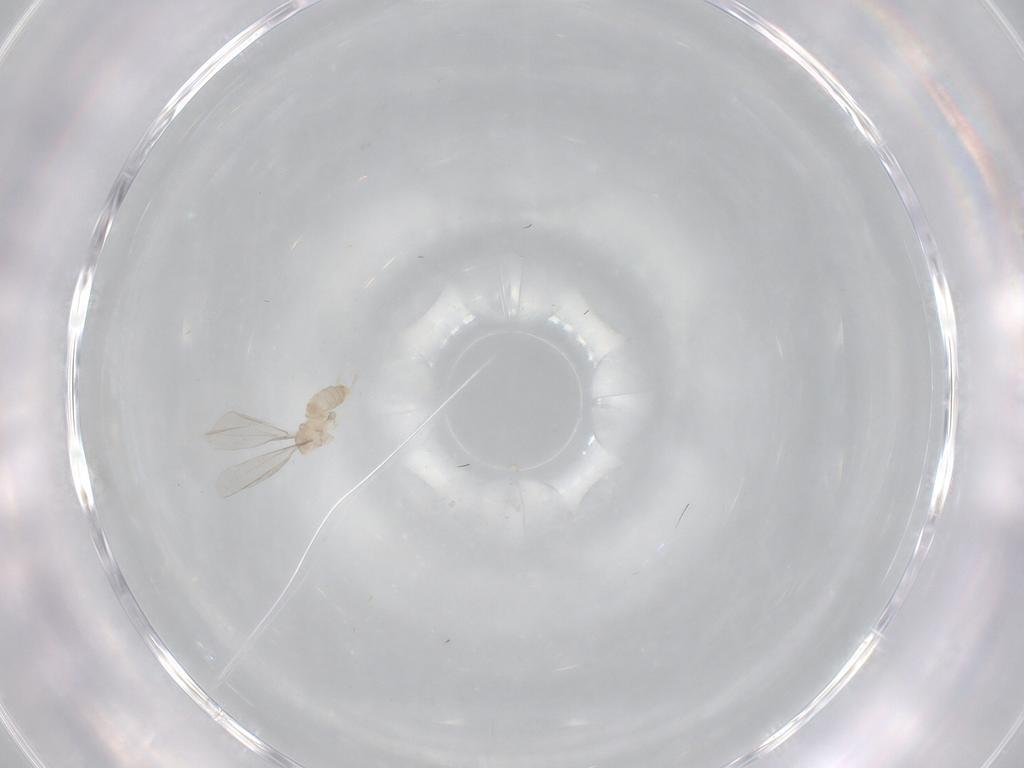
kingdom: Animalia
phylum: Arthropoda
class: Insecta
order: Diptera
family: Cecidomyiidae
